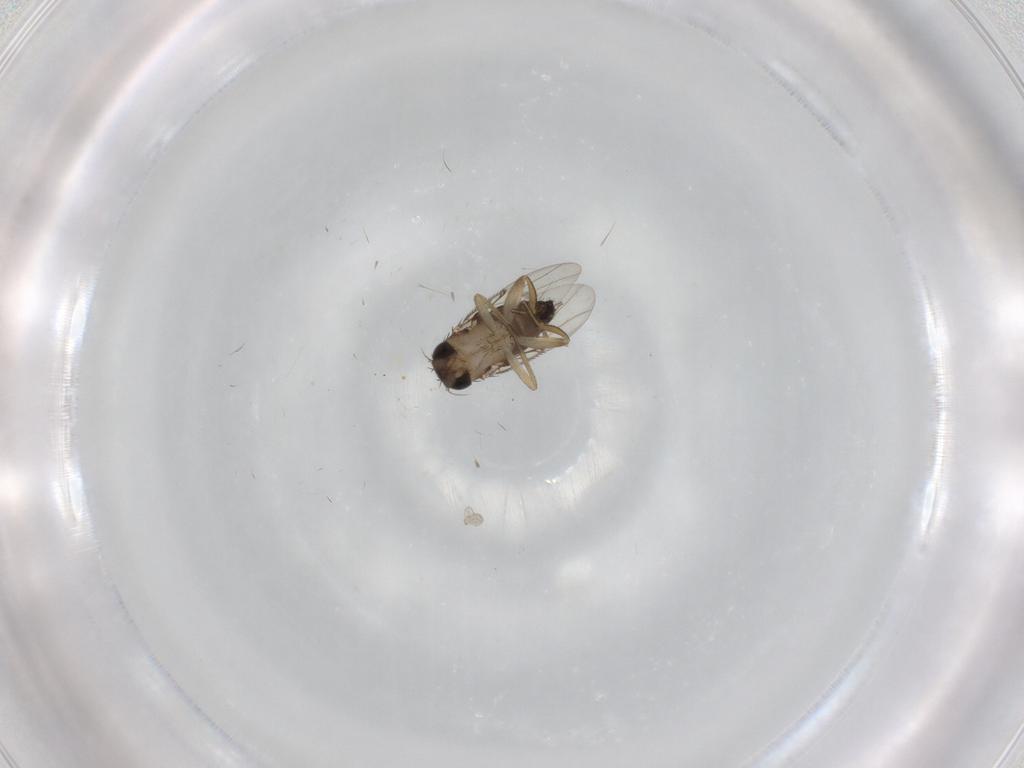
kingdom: Animalia
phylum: Arthropoda
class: Insecta
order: Diptera
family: Phoridae
